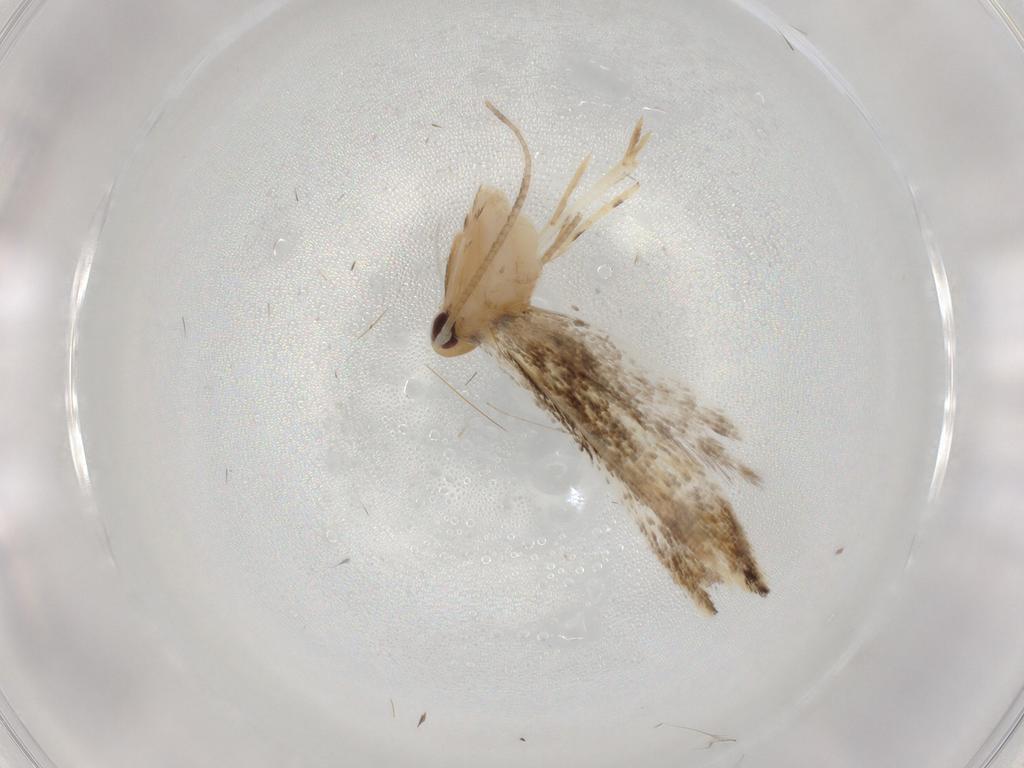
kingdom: Animalia
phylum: Arthropoda
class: Insecta
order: Lepidoptera
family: Momphidae
